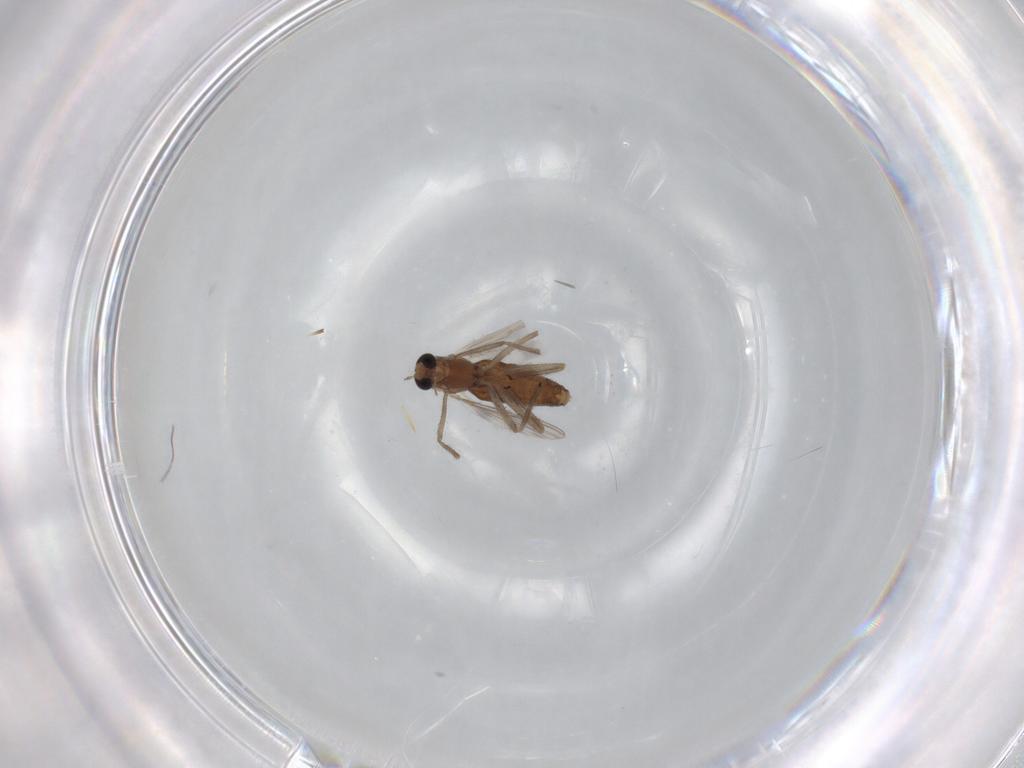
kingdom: Animalia
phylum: Arthropoda
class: Insecta
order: Diptera
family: Chironomidae
